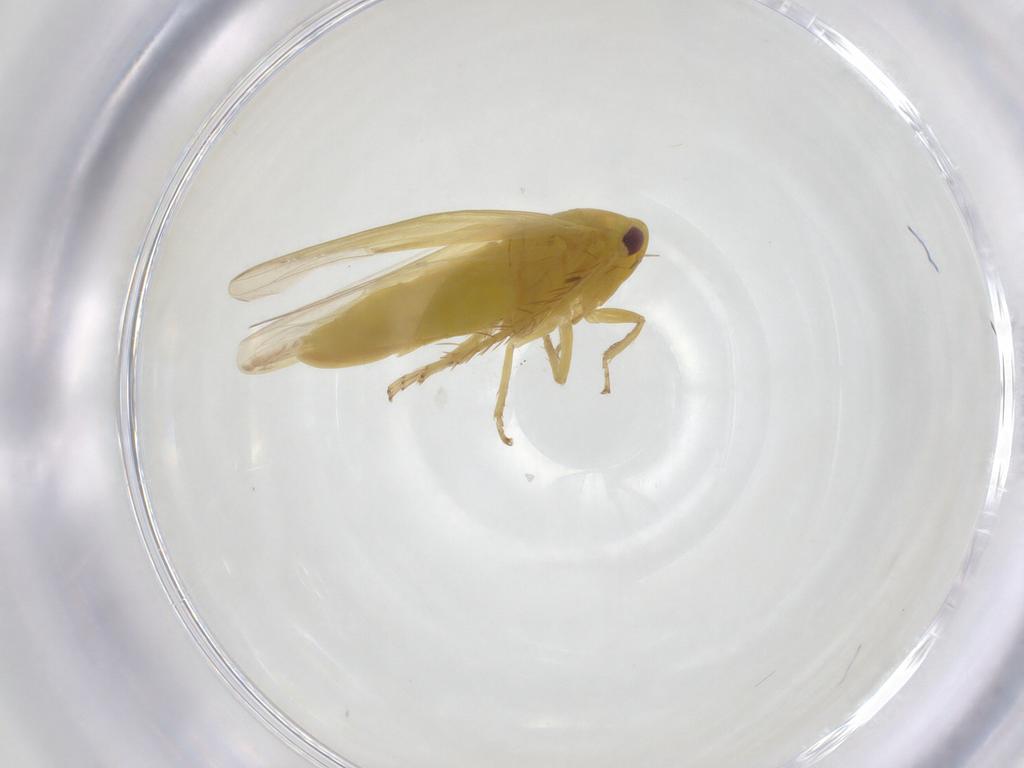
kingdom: Animalia
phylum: Arthropoda
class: Insecta
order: Hemiptera
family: Cicadellidae
